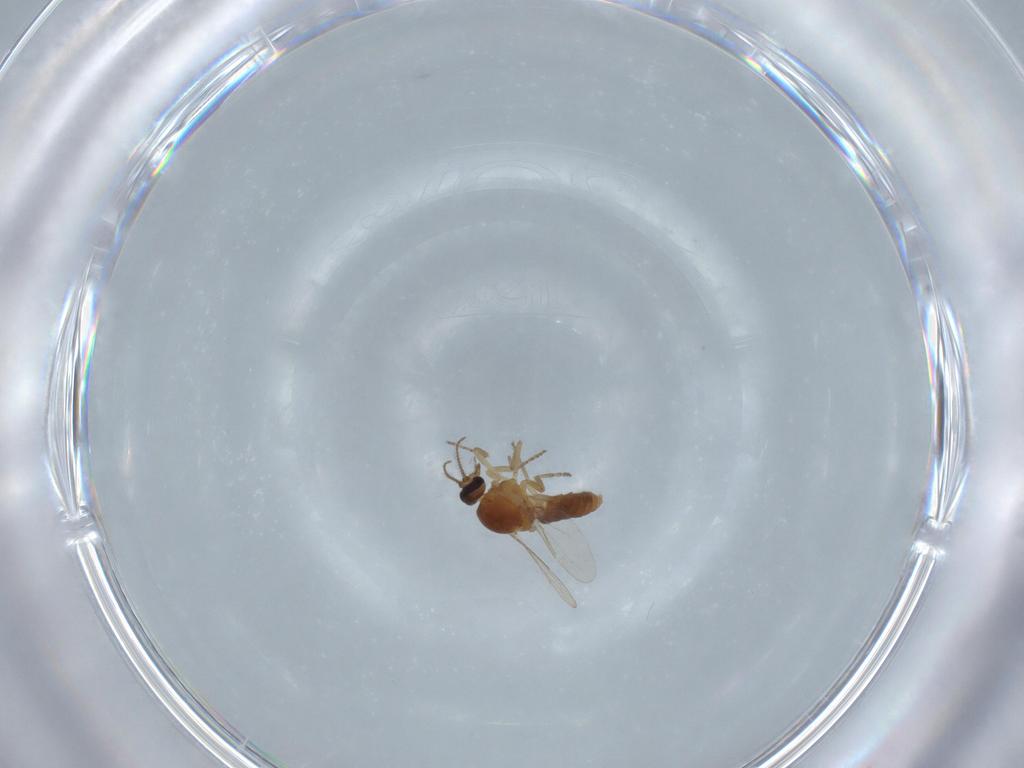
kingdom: Animalia
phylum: Arthropoda
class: Insecta
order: Diptera
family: Ceratopogonidae
